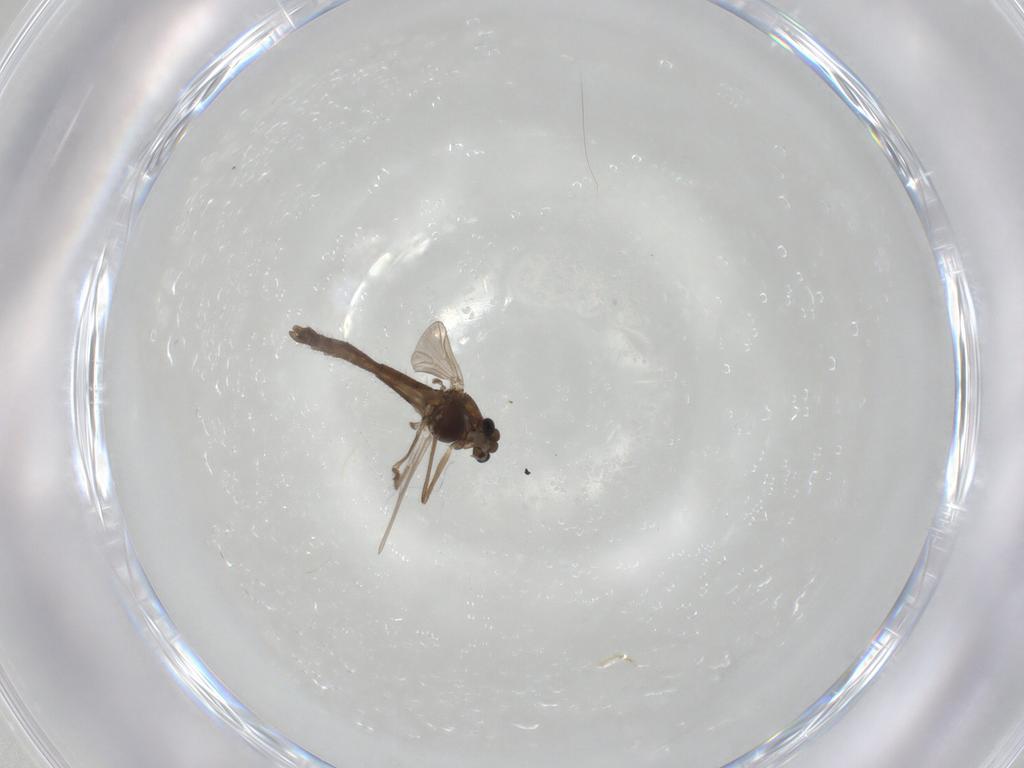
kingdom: Animalia
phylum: Arthropoda
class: Insecta
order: Diptera
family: Chironomidae
